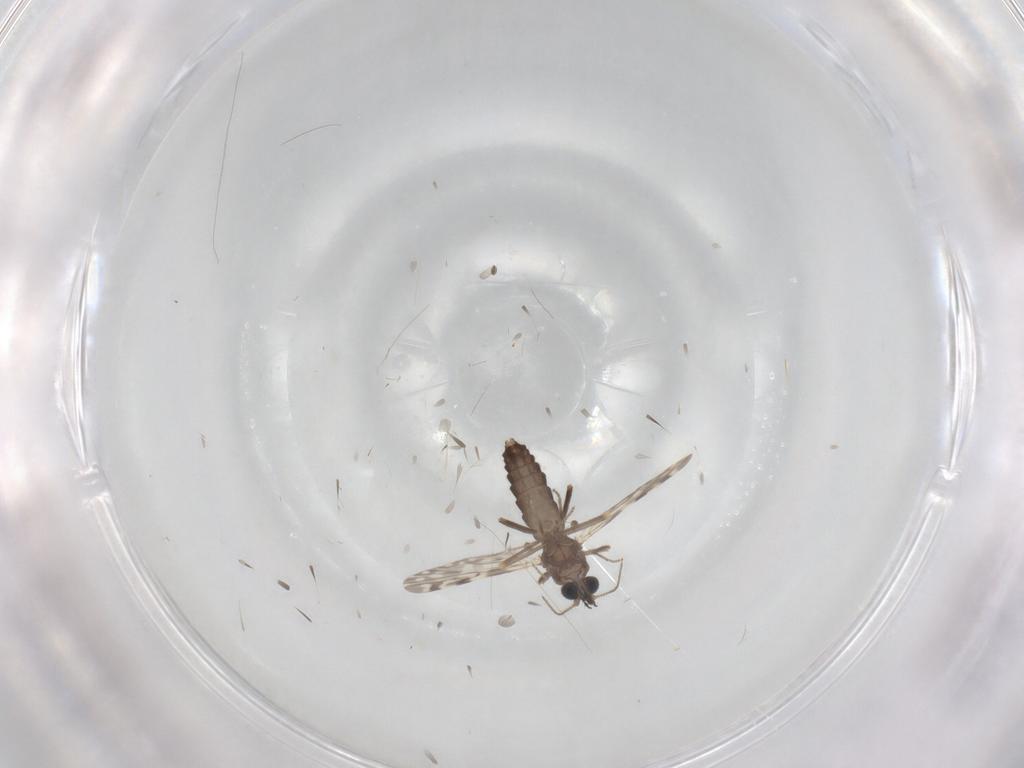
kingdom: Animalia
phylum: Arthropoda
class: Insecta
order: Diptera
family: Ceratopogonidae
